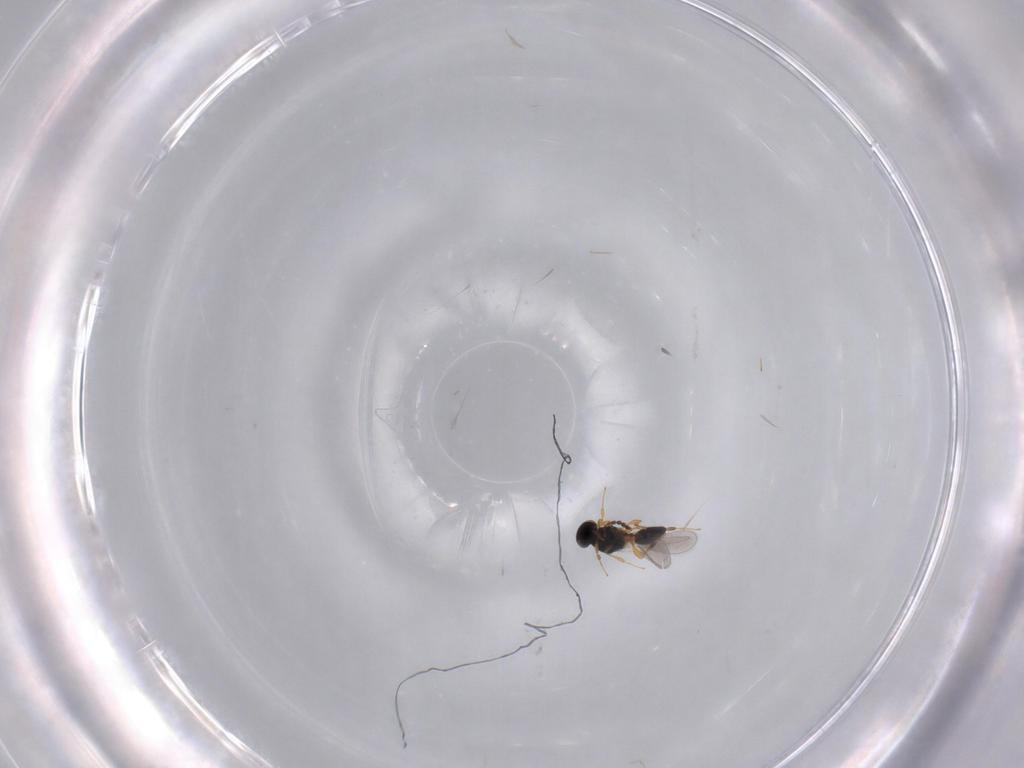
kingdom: Animalia
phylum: Arthropoda
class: Insecta
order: Hymenoptera
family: Platygastridae
